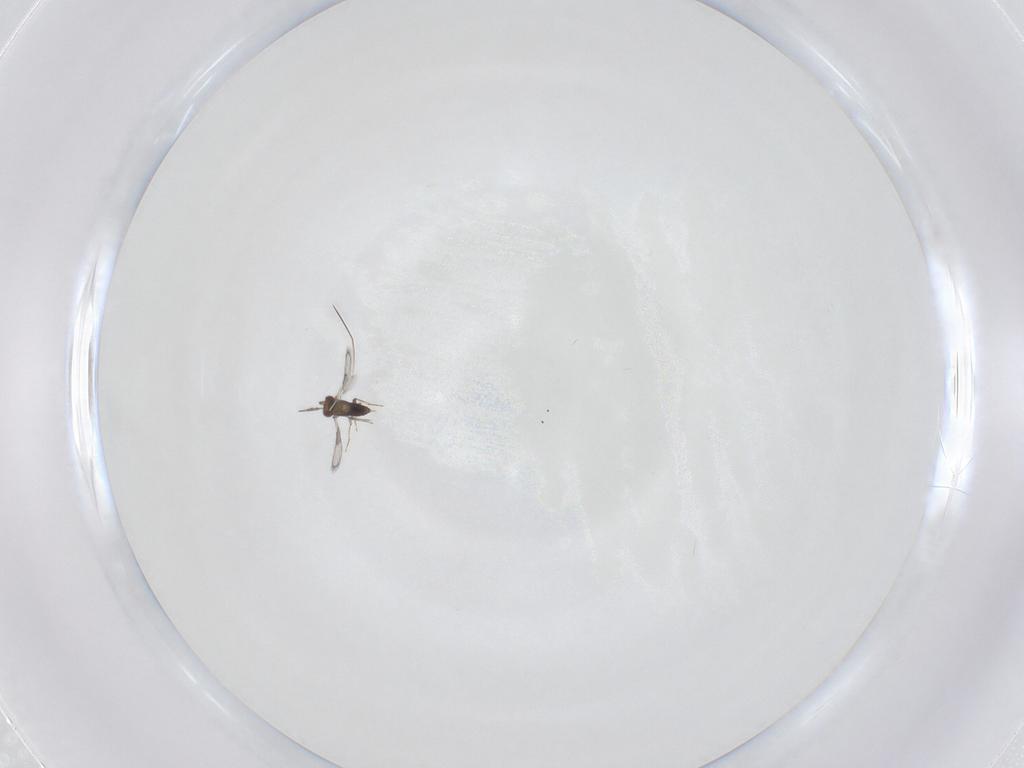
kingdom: Animalia
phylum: Arthropoda
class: Insecta
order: Hymenoptera
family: Trichogrammatidae
